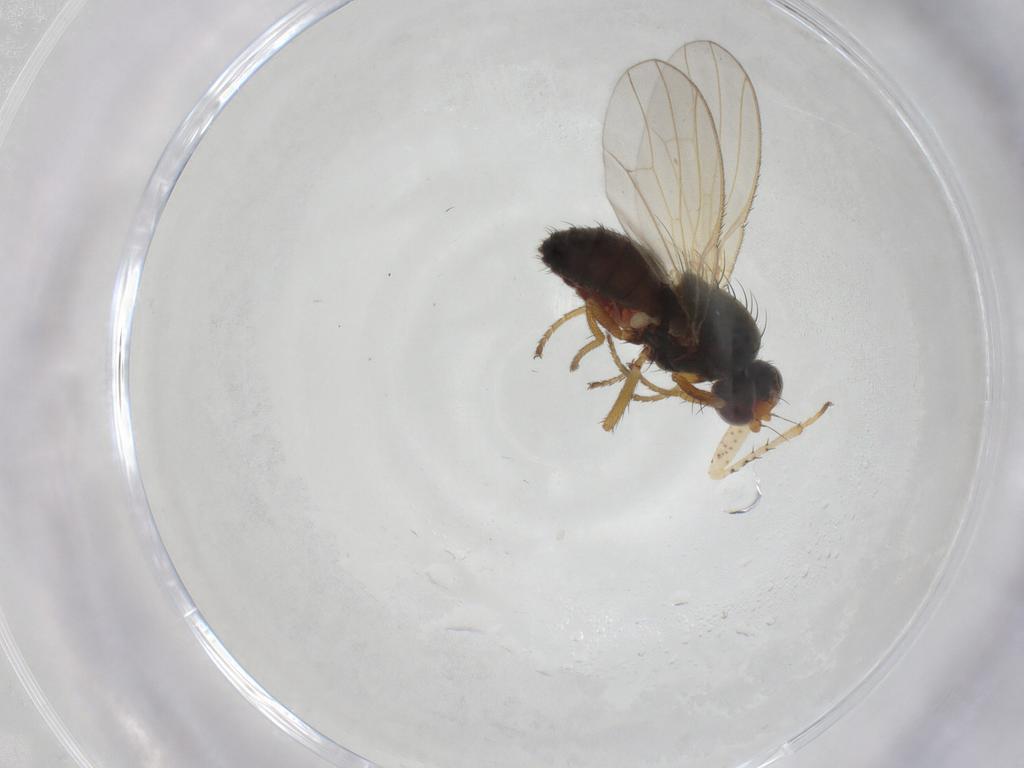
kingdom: Animalia
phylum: Arthropoda
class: Insecta
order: Diptera
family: Heleomyzidae
